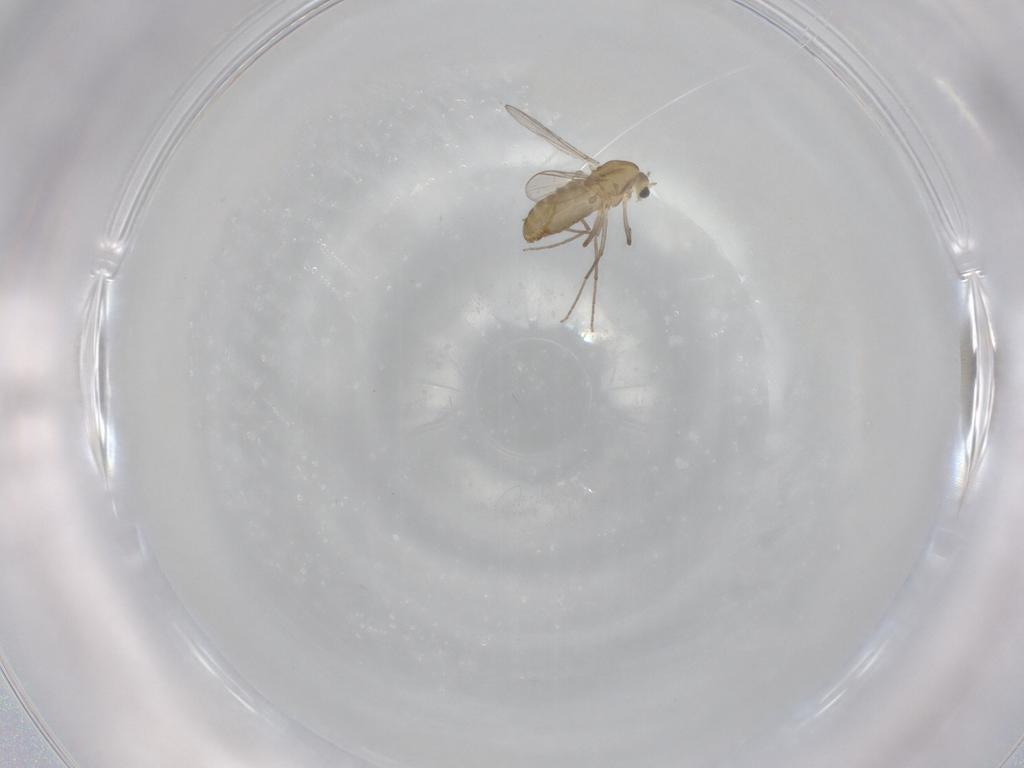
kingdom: Animalia
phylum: Arthropoda
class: Insecta
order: Diptera
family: Chironomidae
